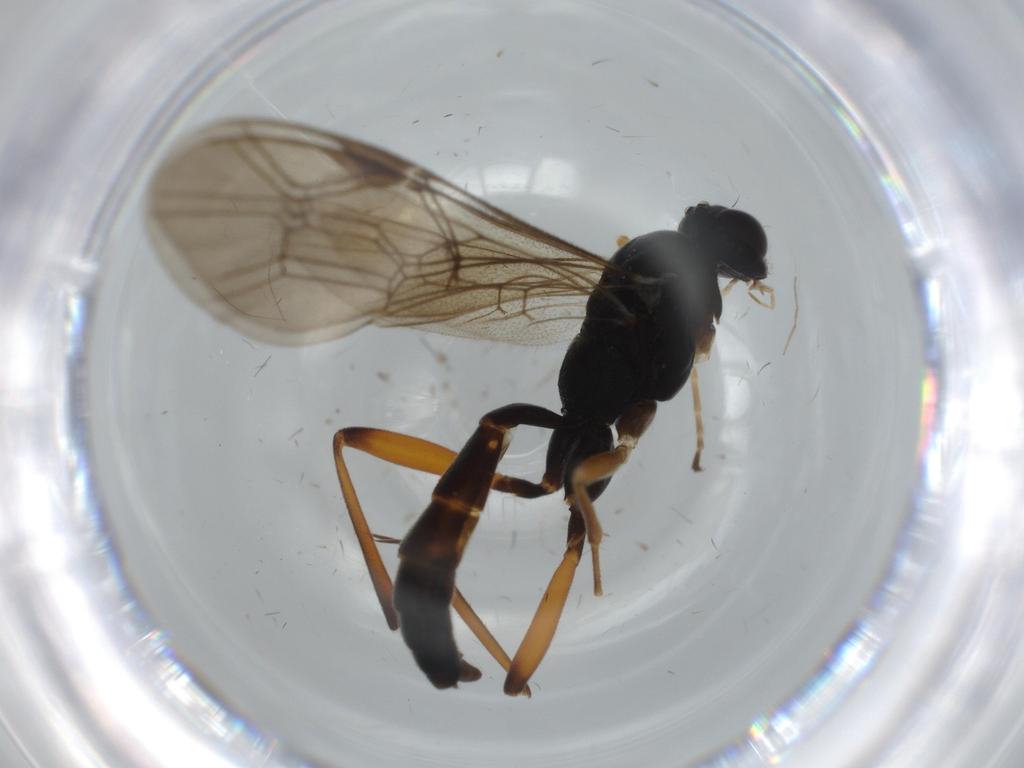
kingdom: Animalia
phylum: Arthropoda
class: Insecta
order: Hymenoptera
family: Ichneumonidae
